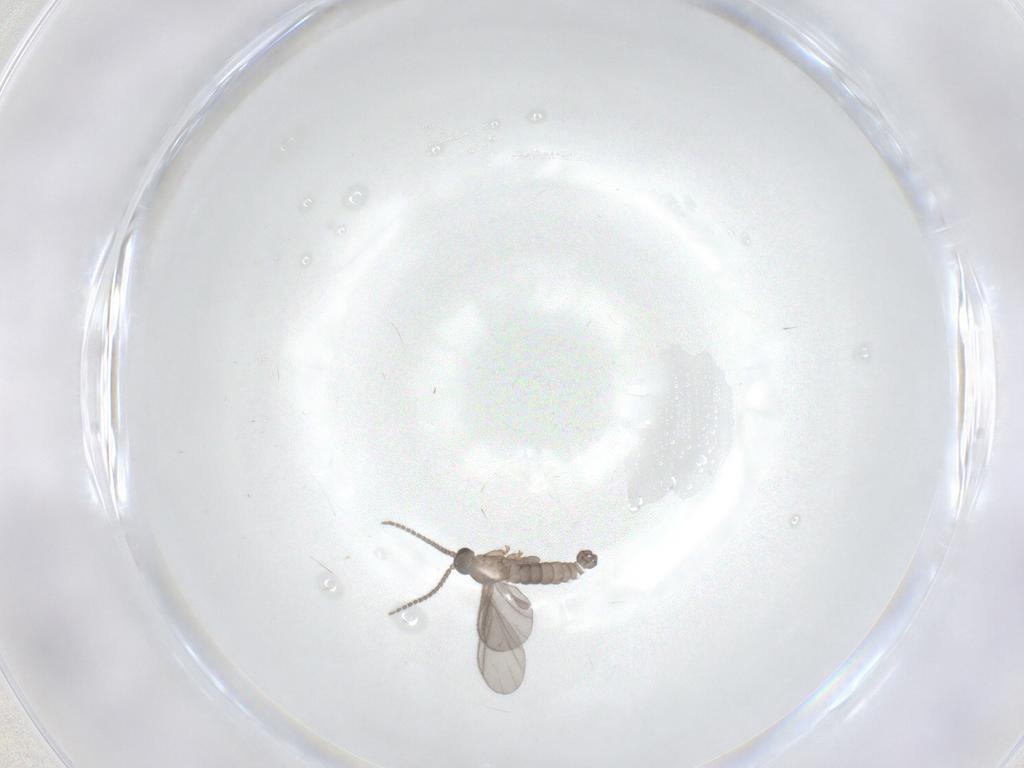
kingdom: Animalia
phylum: Arthropoda
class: Insecta
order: Diptera
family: Sciaridae
